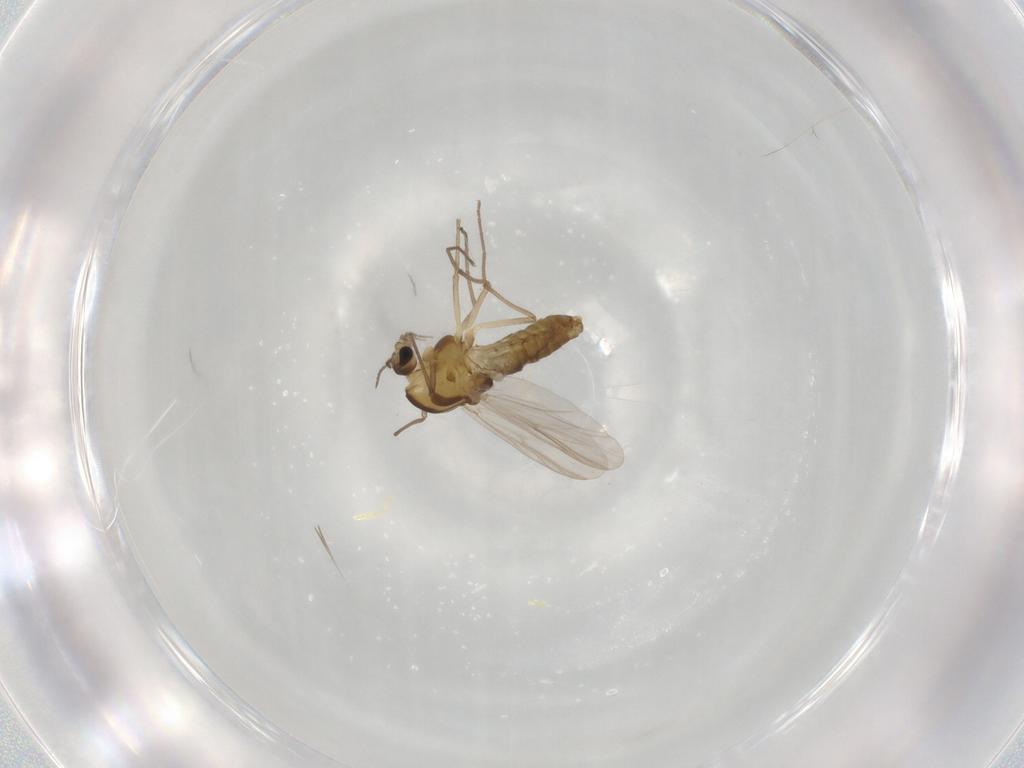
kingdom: Animalia
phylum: Arthropoda
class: Insecta
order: Diptera
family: Chironomidae
